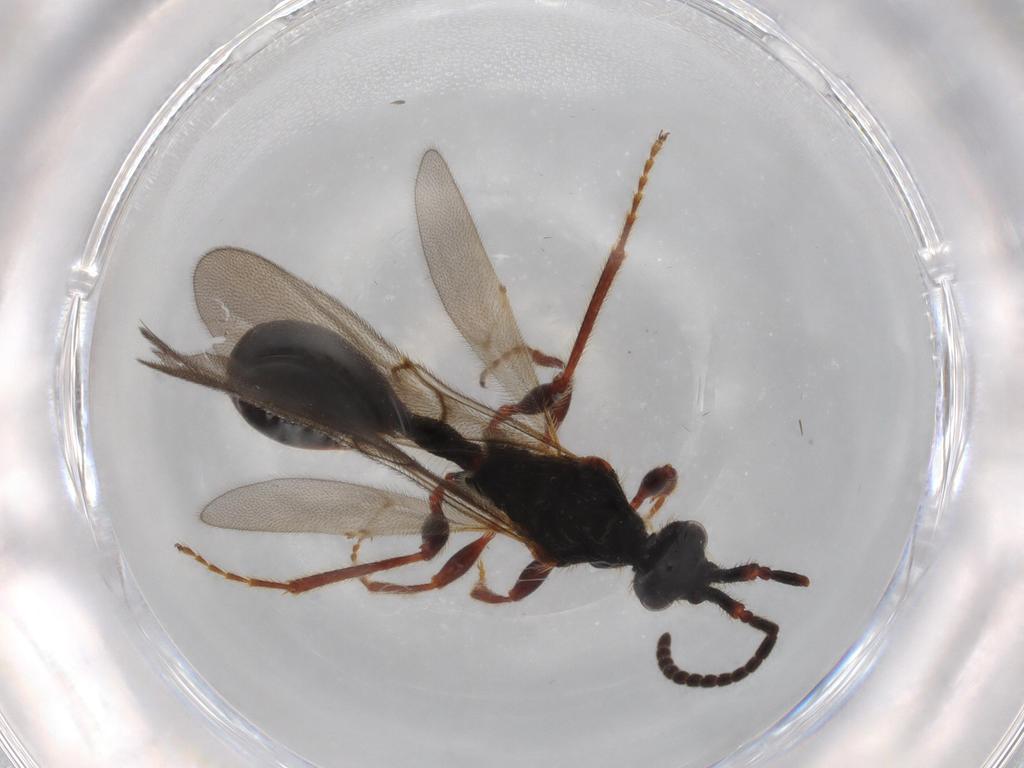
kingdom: Animalia
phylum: Arthropoda
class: Insecta
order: Hymenoptera
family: Diapriidae
